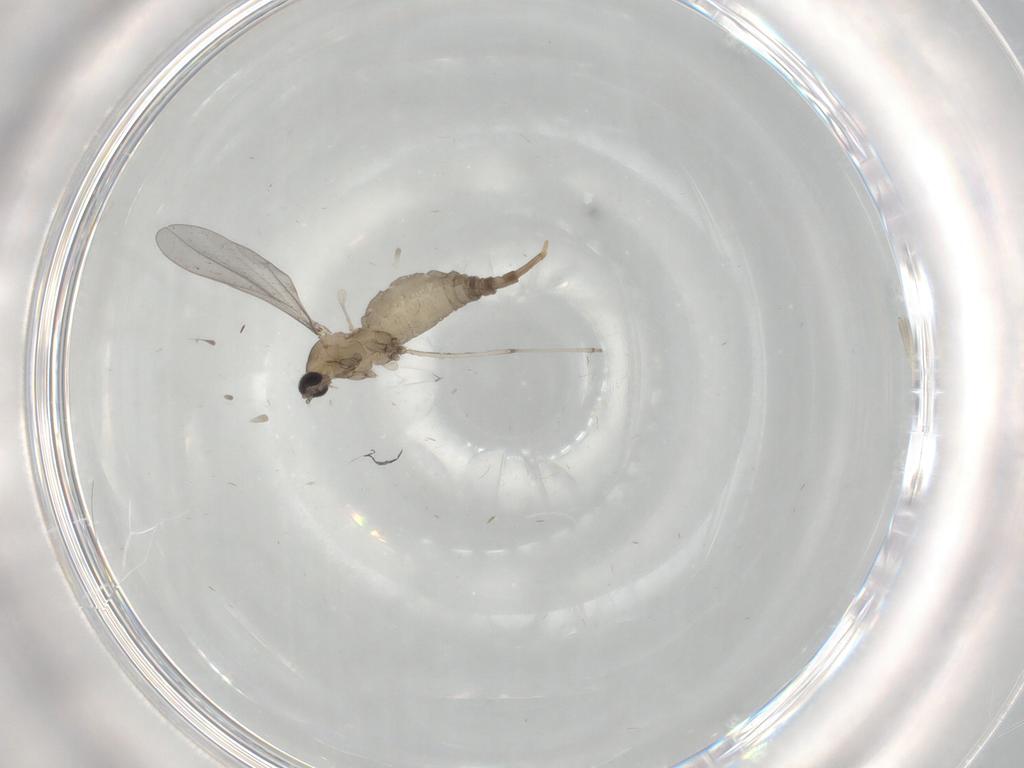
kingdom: Animalia
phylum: Arthropoda
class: Insecta
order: Diptera
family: Cecidomyiidae
